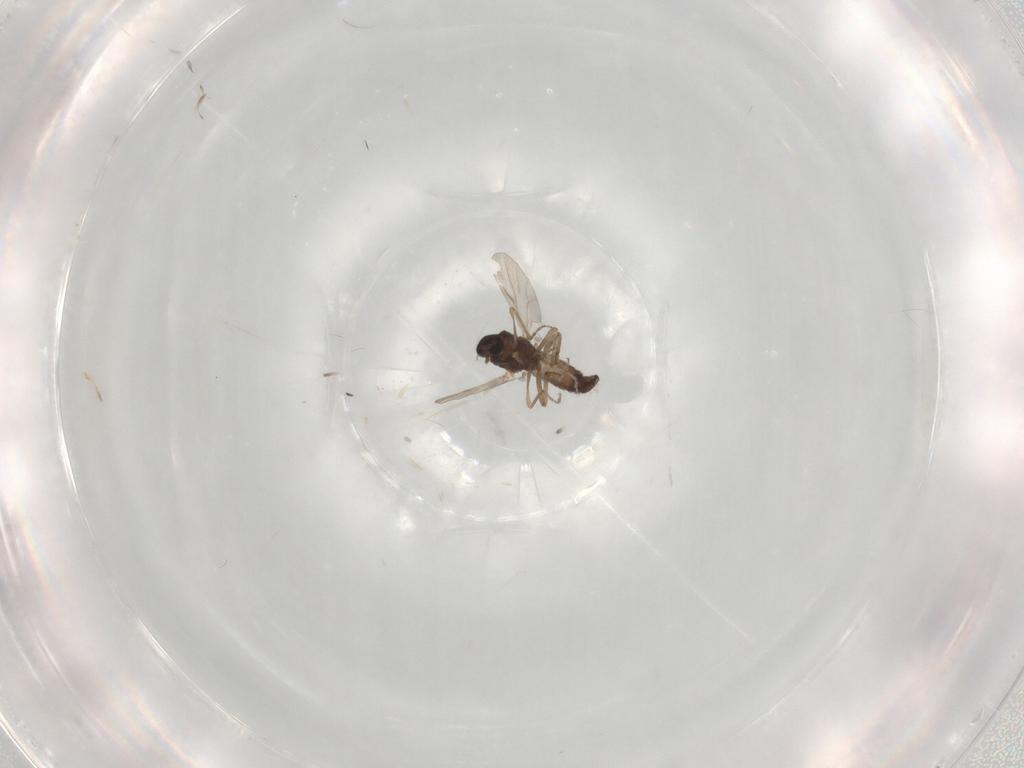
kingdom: Animalia
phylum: Arthropoda
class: Insecta
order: Diptera
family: Ceratopogonidae
